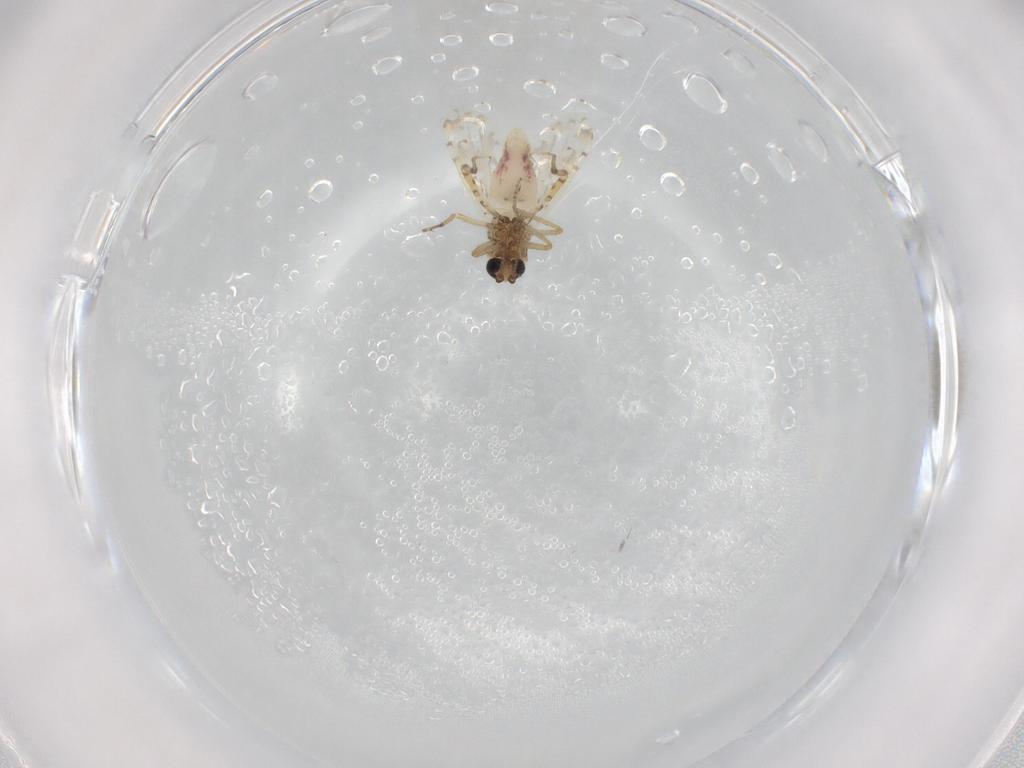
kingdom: Animalia
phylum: Arthropoda
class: Insecta
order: Diptera
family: Ceratopogonidae
